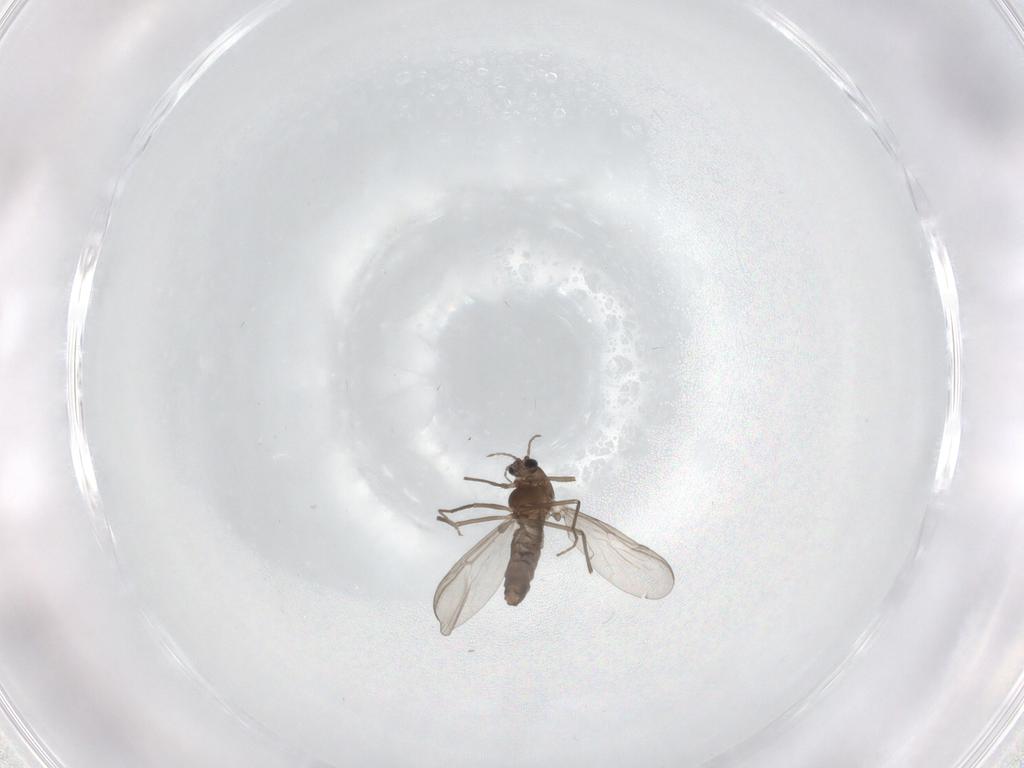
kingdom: Animalia
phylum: Arthropoda
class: Insecta
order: Diptera
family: Chironomidae
